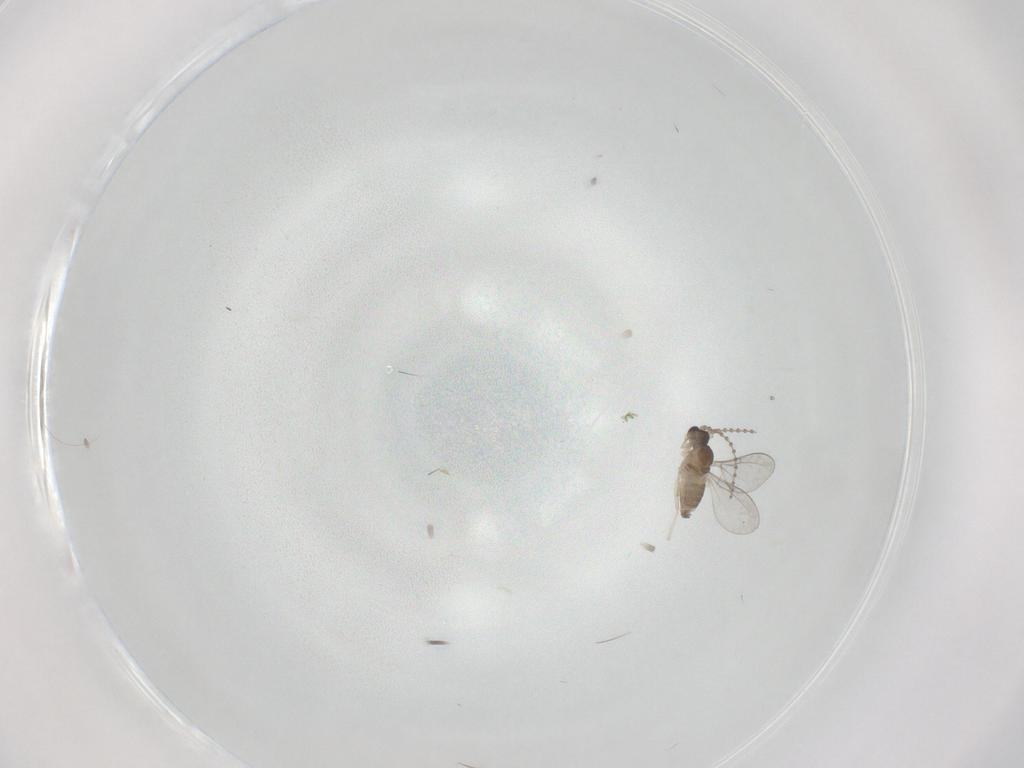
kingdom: Animalia
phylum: Arthropoda
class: Insecta
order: Diptera
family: Cecidomyiidae
